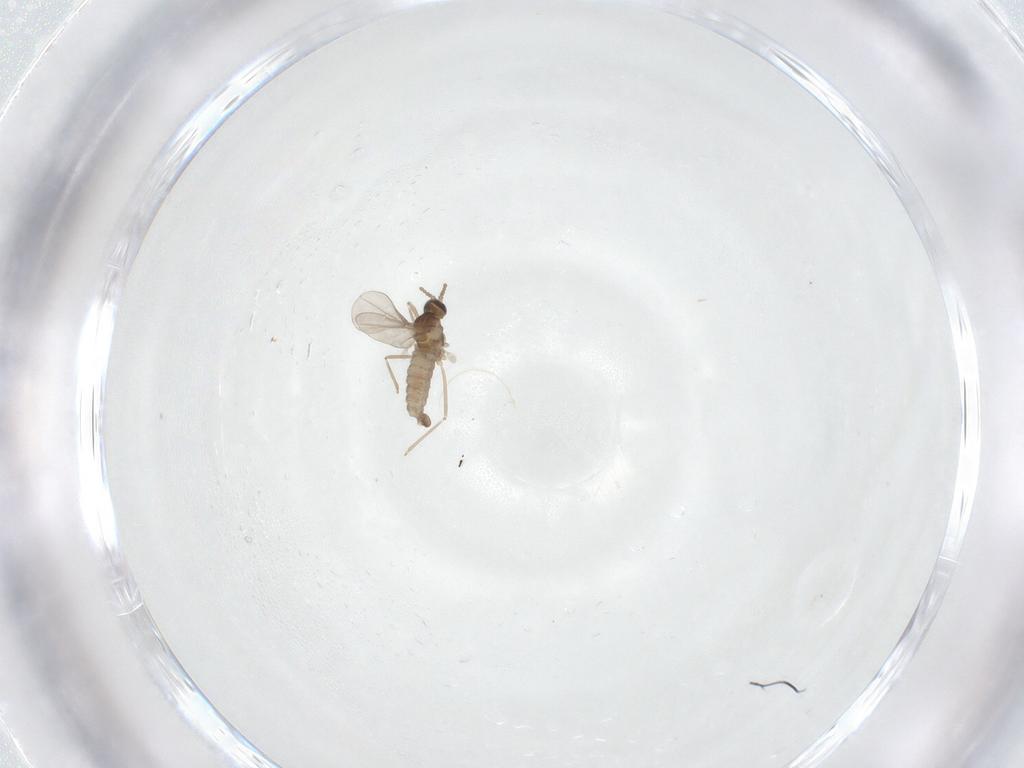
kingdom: Animalia
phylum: Arthropoda
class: Insecta
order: Diptera
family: Cecidomyiidae
